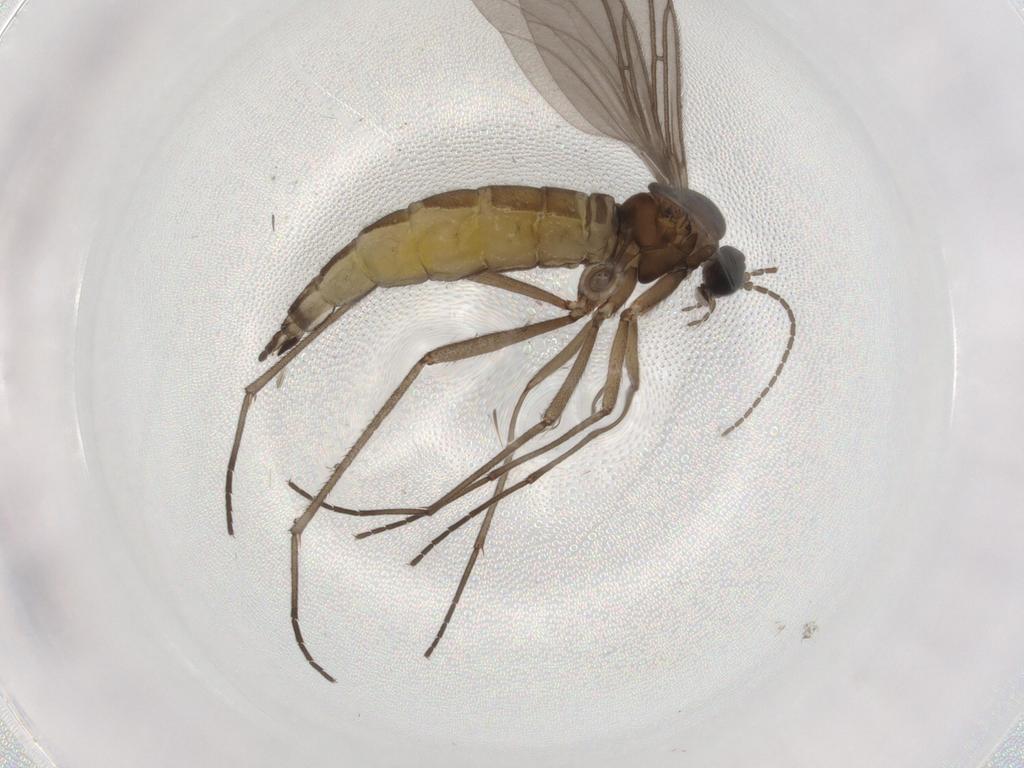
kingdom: Animalia
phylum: Arthropoda
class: Insecta
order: Diptera
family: Sciaridae
